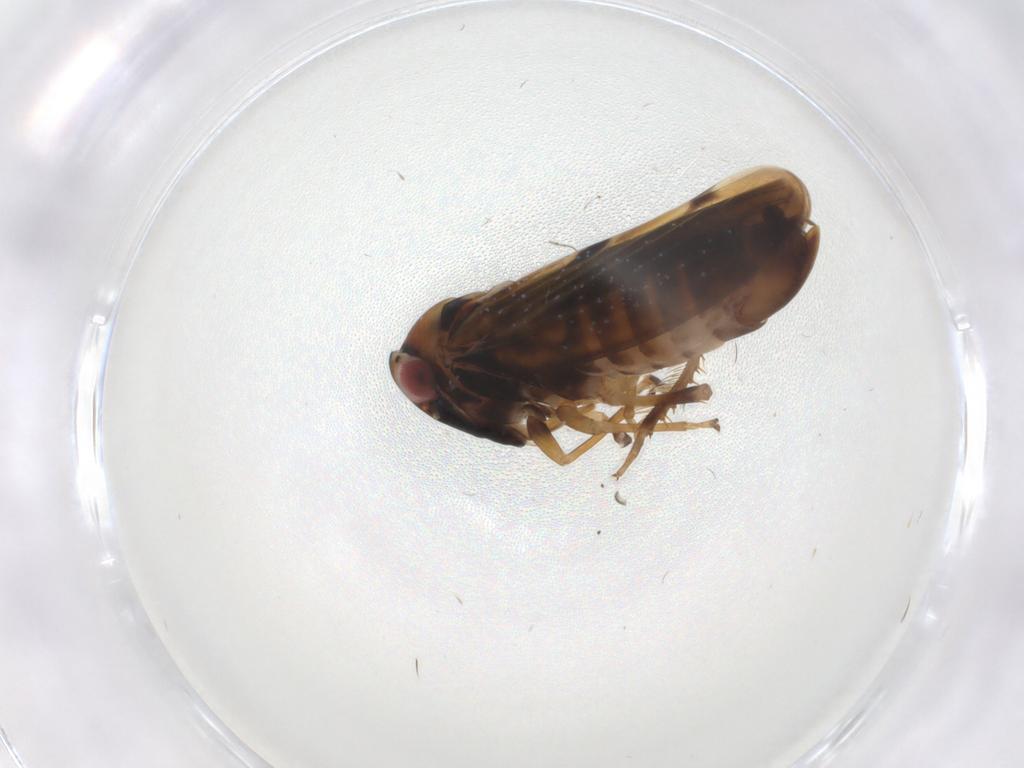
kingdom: Animalia
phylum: Arthropoda
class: Insecta
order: Hemiptera
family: Cicadellidae
